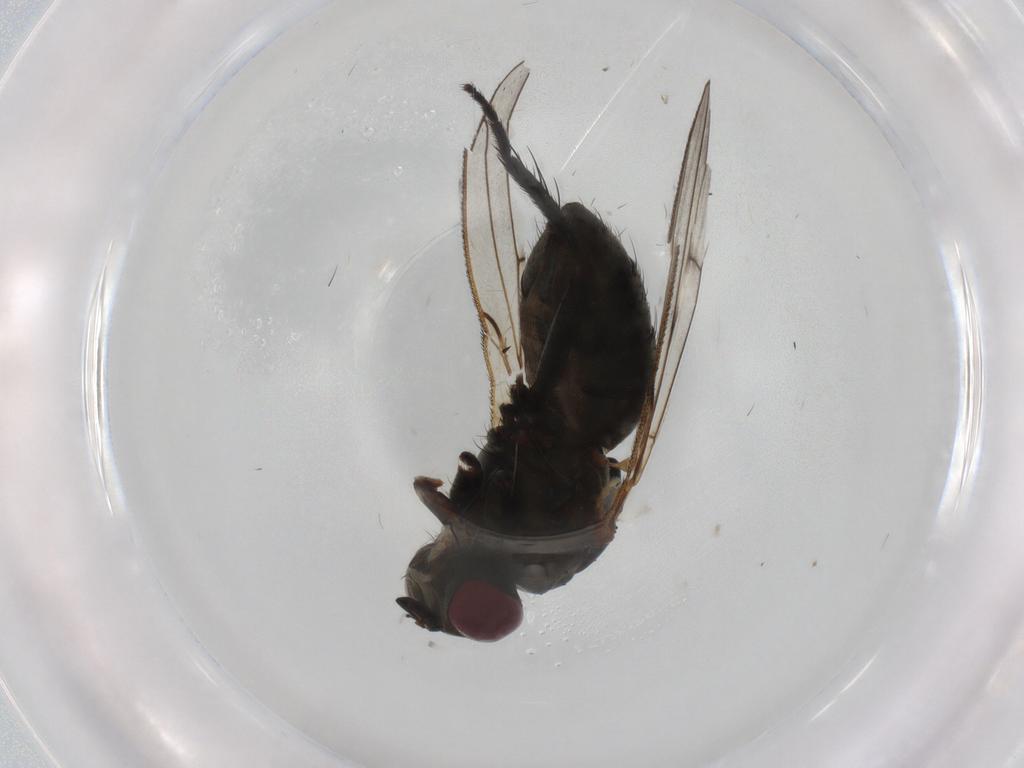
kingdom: Animalia
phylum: Arthropoda
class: Insecta
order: Diptera
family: Muscidae
